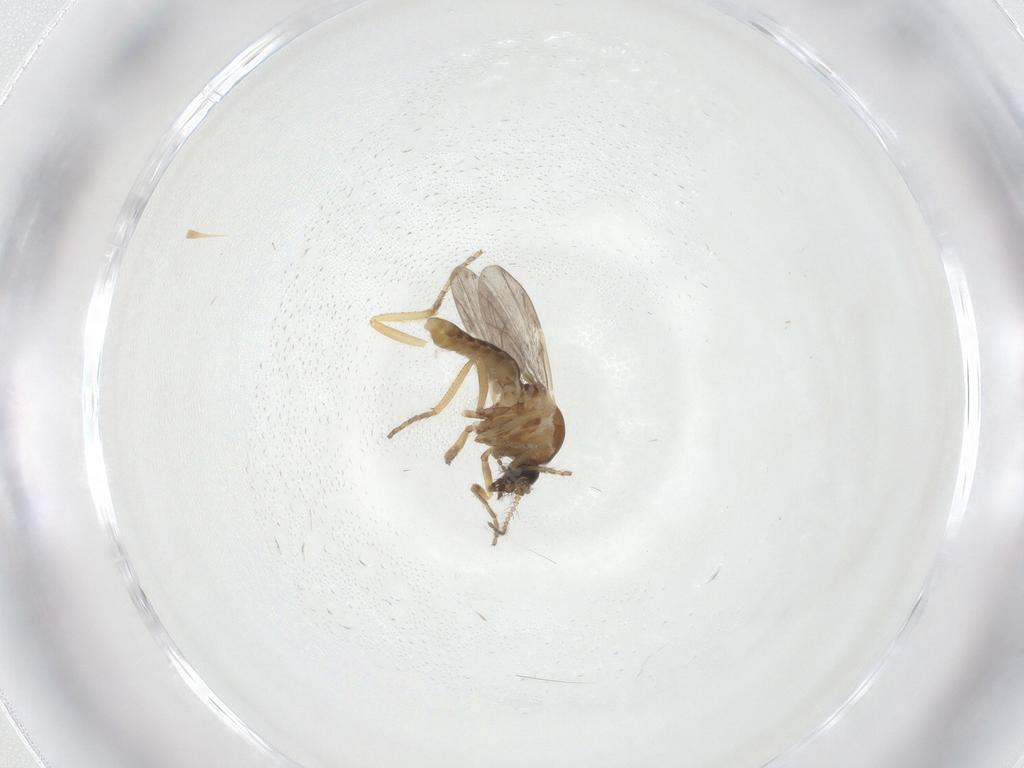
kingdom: Animalia
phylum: Arthropoda
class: Insecta
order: Diptera
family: Ceratopogonidae
